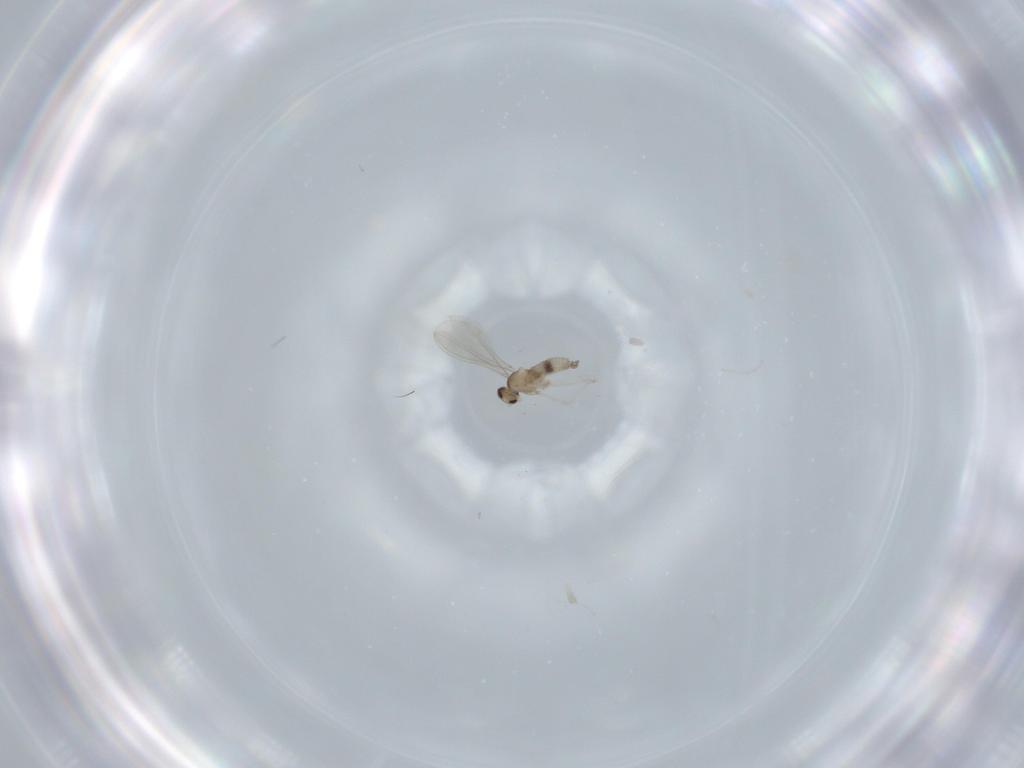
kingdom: Animalia
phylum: Arthropoda
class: Insecta
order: Diptera
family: Cecidomyiidae
